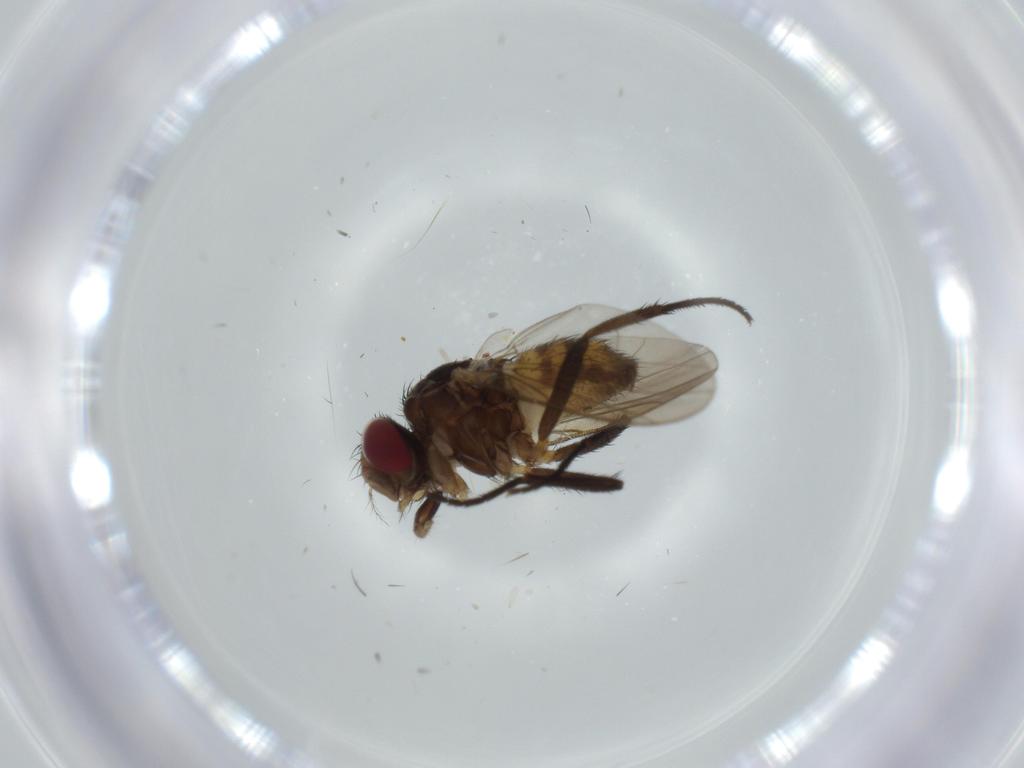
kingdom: Animalia
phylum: Arthropoda
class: Insecta
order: Diptera
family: Anthomyiidae
